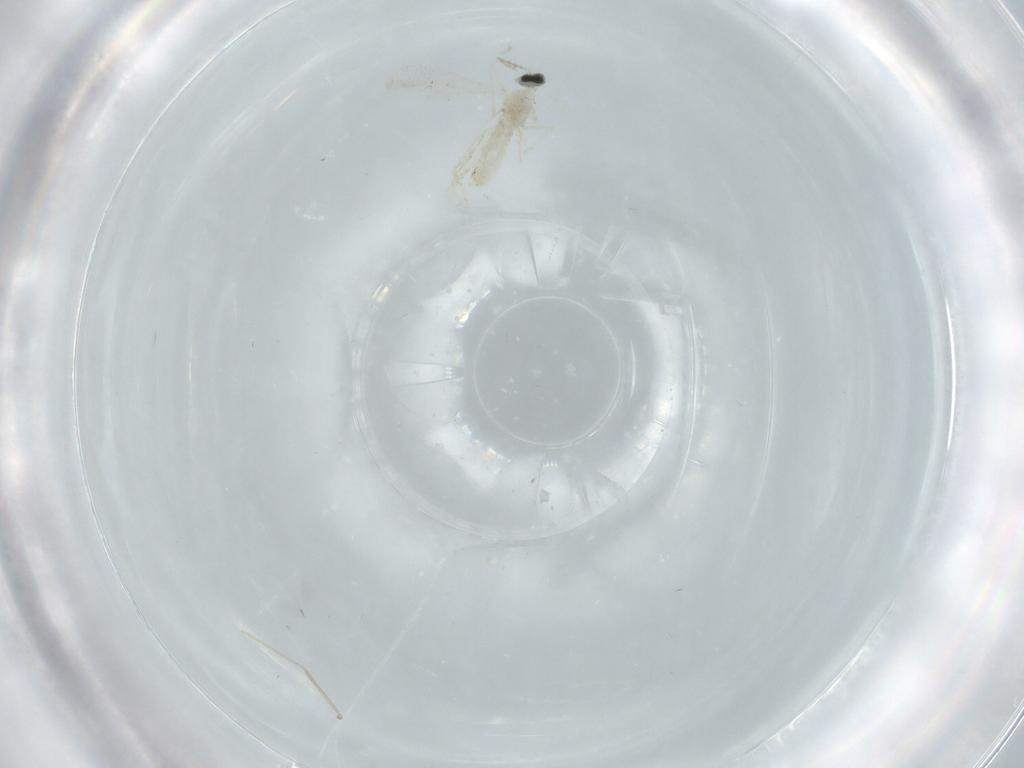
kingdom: Animalia
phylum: Arthropoda
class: Insecta
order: Diptera
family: Cecidomyiidae
